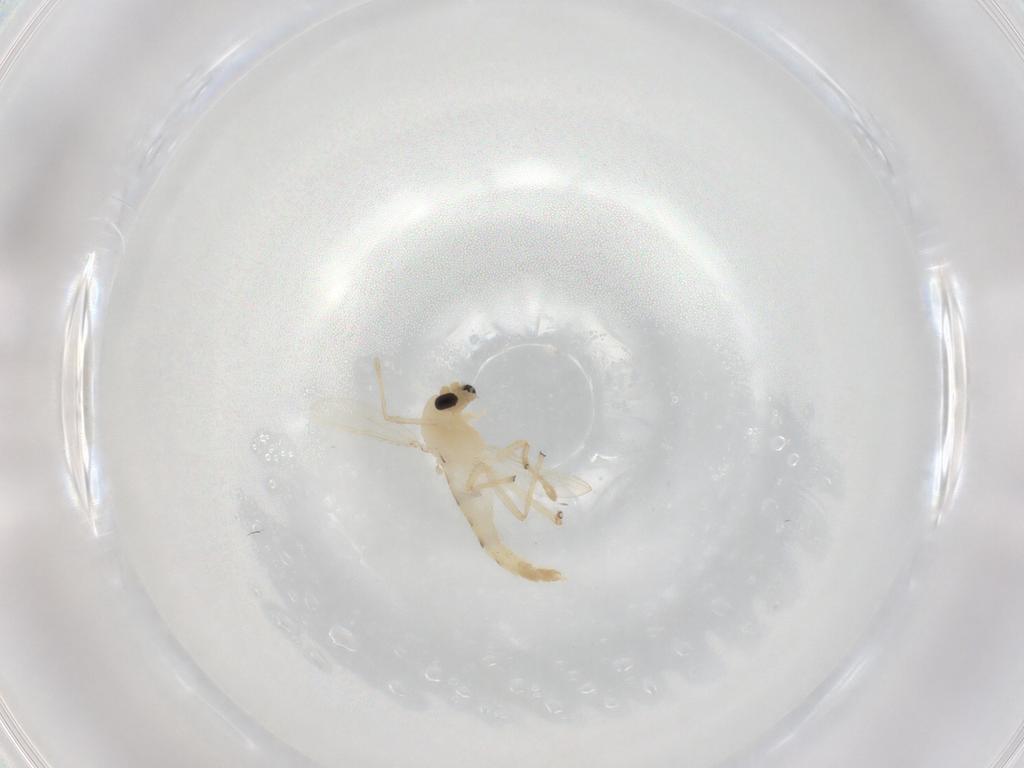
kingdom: Animalia
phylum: Arthropoda
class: Insecta
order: Diptera
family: Chironomidae
